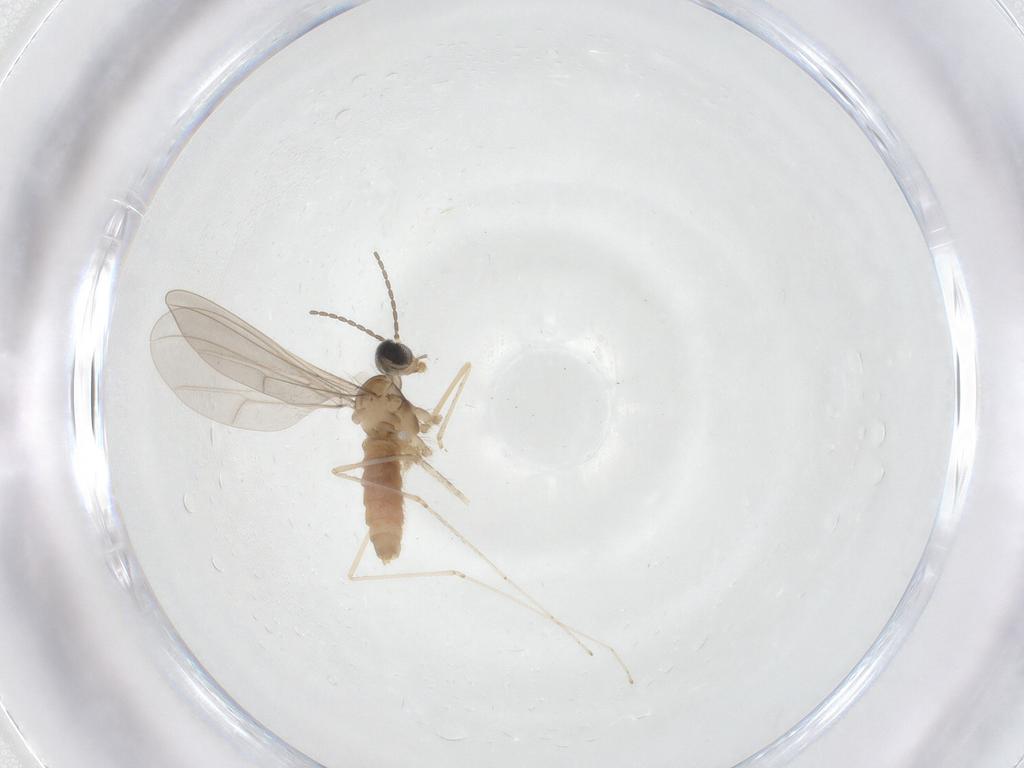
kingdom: Animalia
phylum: Arthropoda
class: Insecta
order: Diptera
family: Cecidomyiidae
